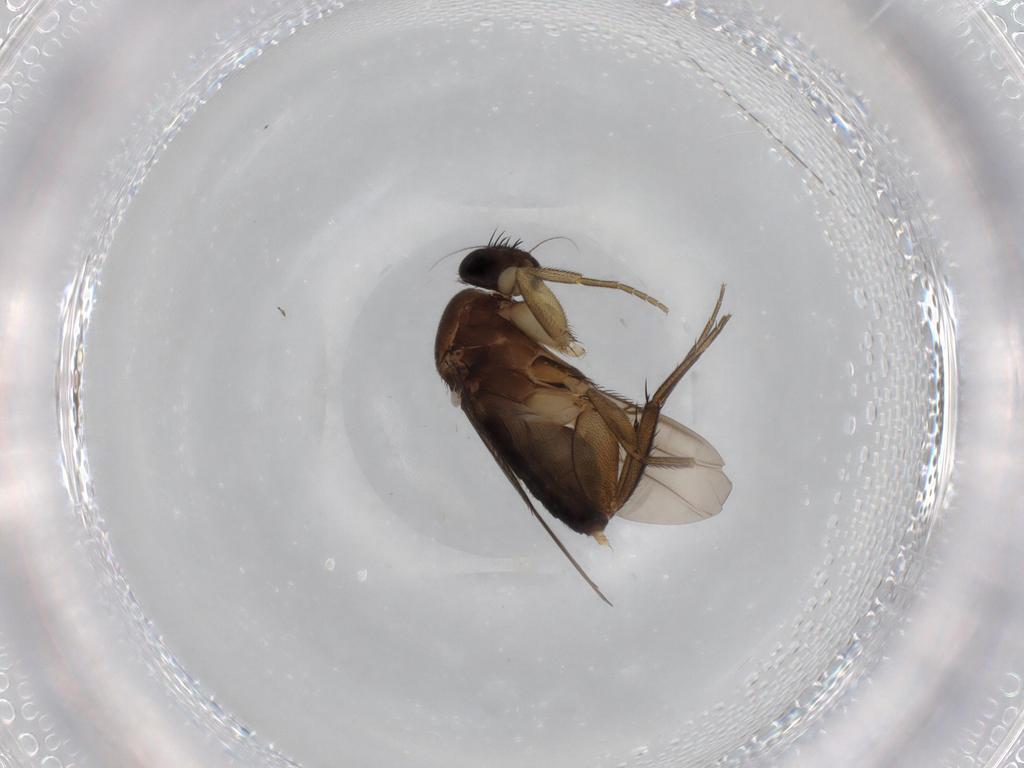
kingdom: Animalia
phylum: Arthropoda
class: Insecta
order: Diptera
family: Chironomidae
